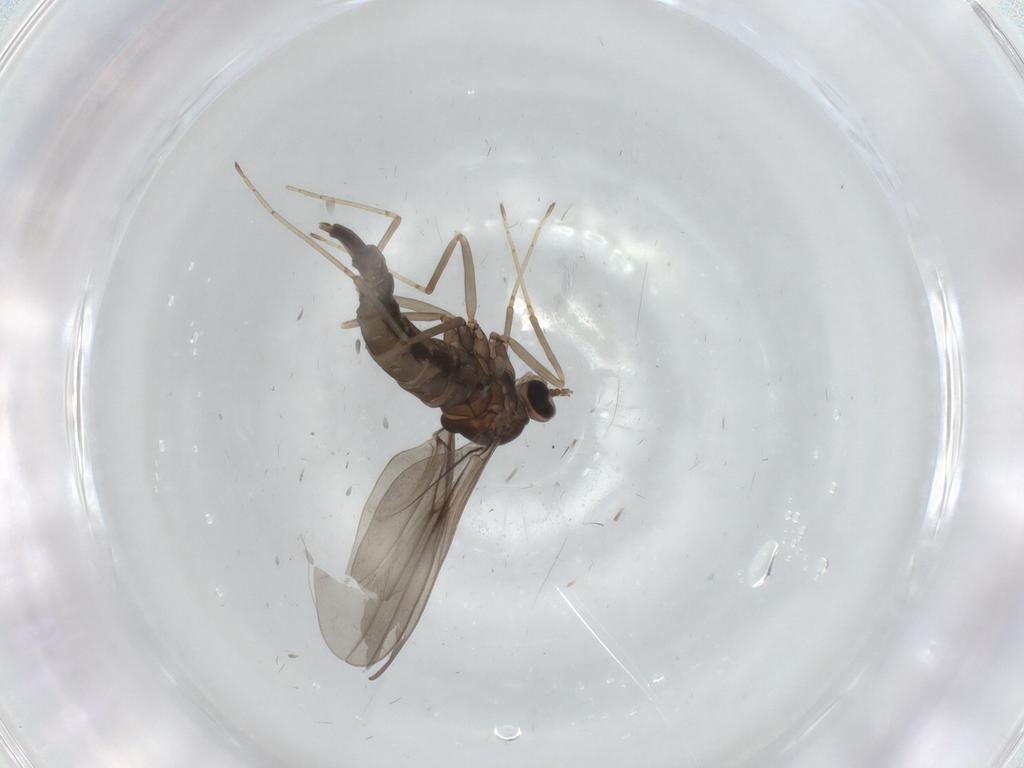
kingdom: Animalia
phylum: Arthropoda
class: Insecta
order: Diptera
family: Cecidomyiidae
